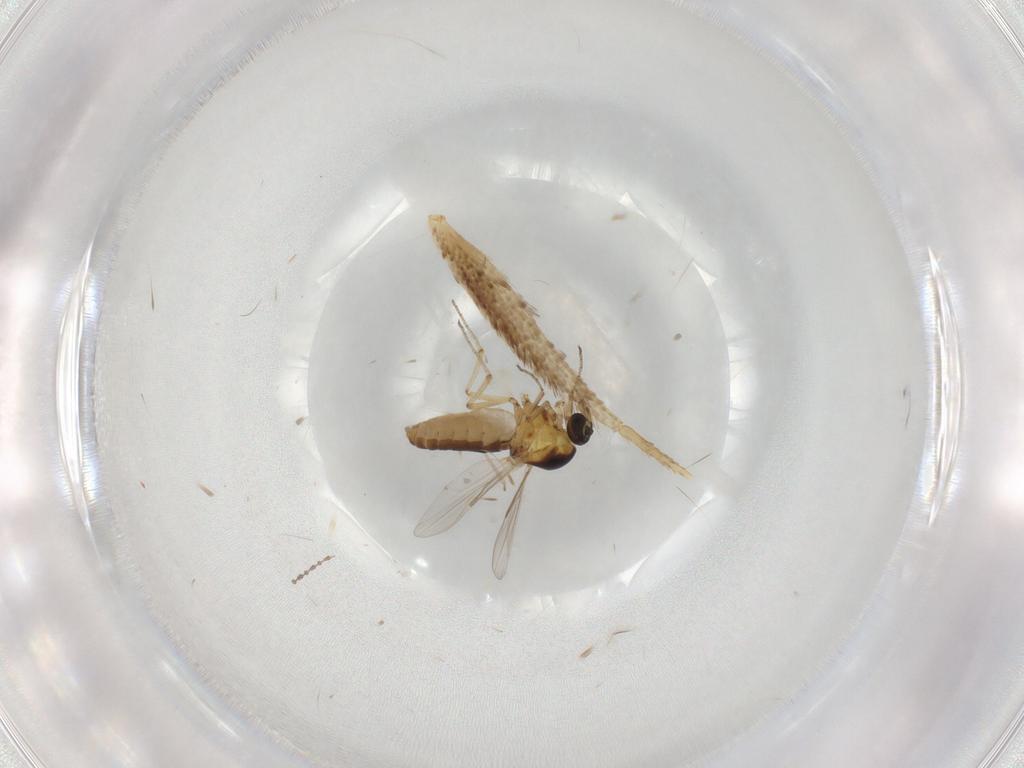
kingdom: Animalia
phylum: Arthropoda
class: Insecta
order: Diptera
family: Ceratopogonidae
